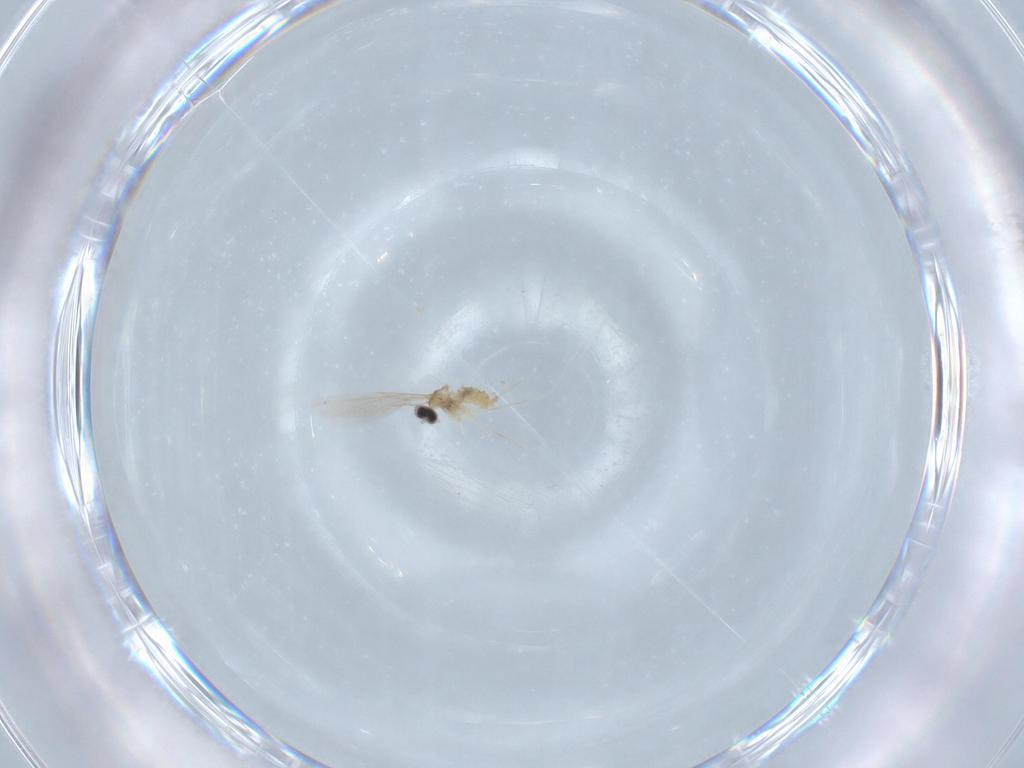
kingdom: Animalia
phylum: Arthropoda
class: Insecta
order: Diptera
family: Cecidomyiidae
